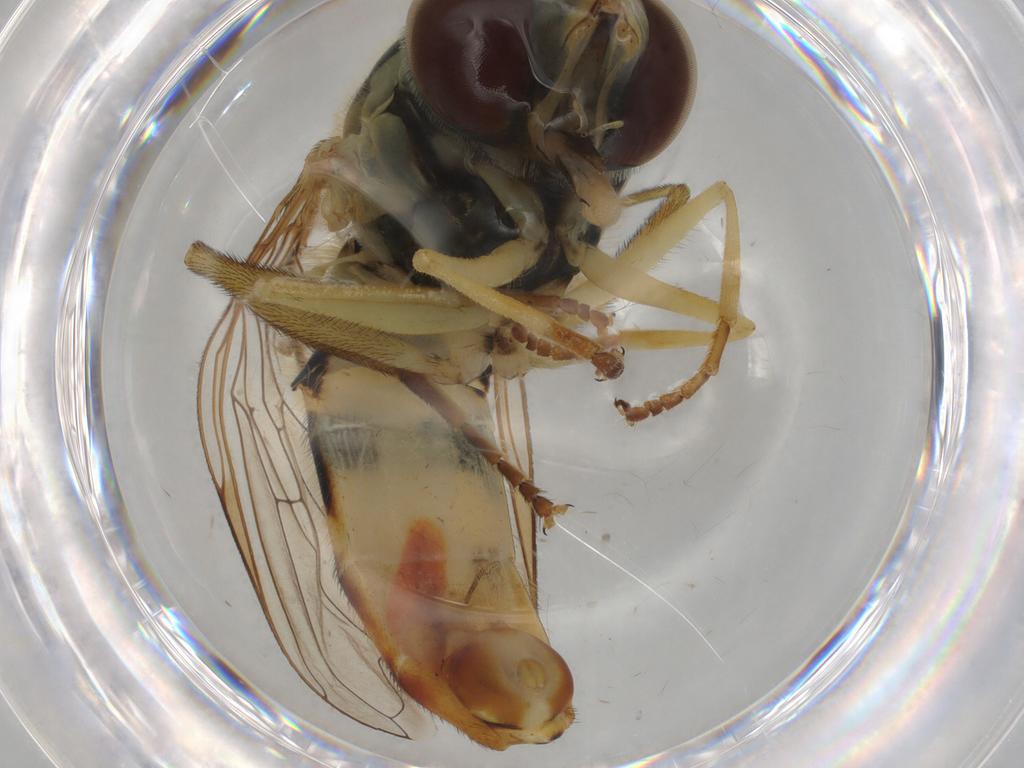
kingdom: Animalia
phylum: Arthropoda
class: Insecta
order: Diptera
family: Syrphidae
